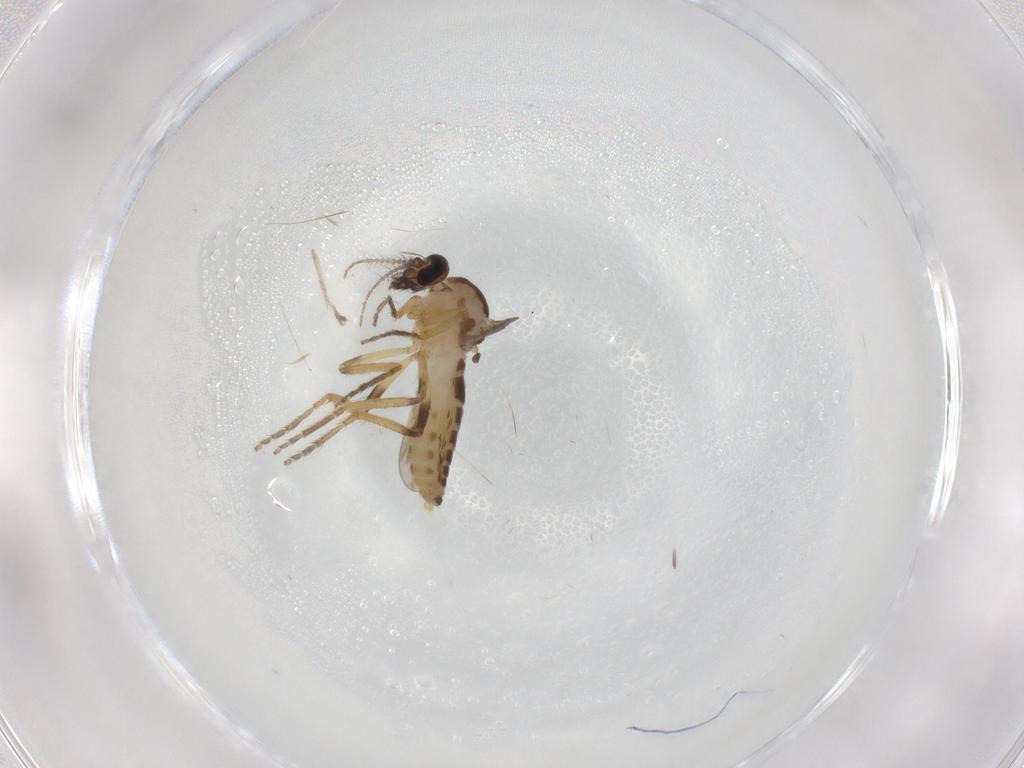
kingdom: Animalia
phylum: Arthropoda
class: Insecta
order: Diptera
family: Ceratopogonidae
